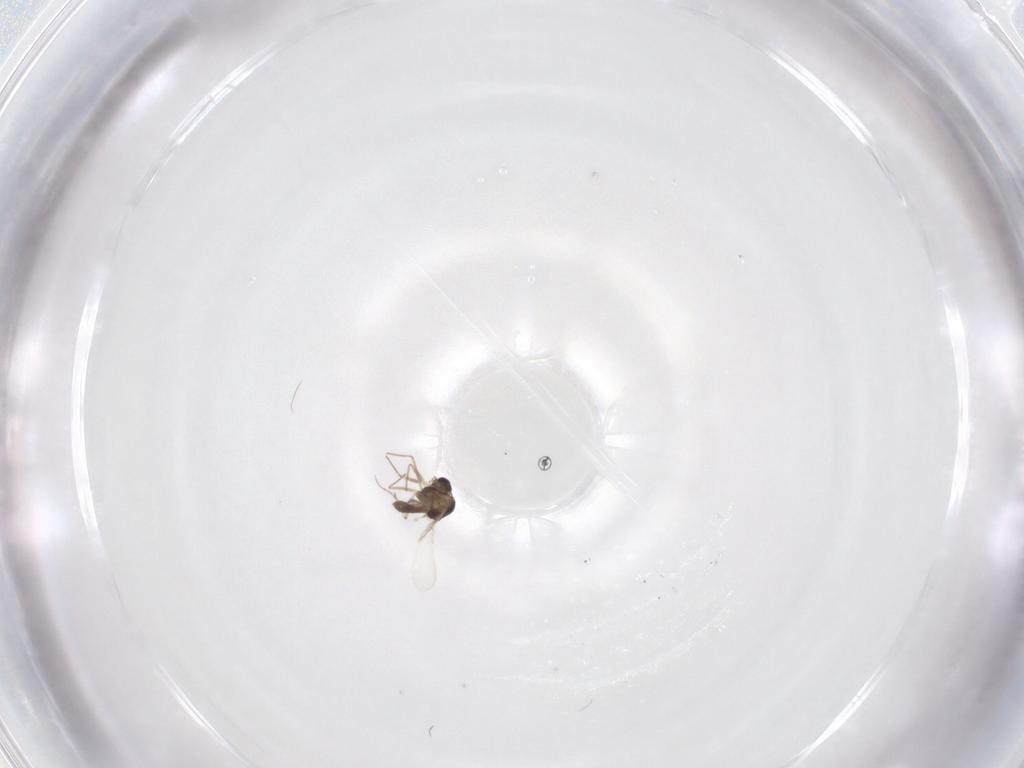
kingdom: Animalia
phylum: Arthropoda
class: Insecta
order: Diptera
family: Chironomidae
